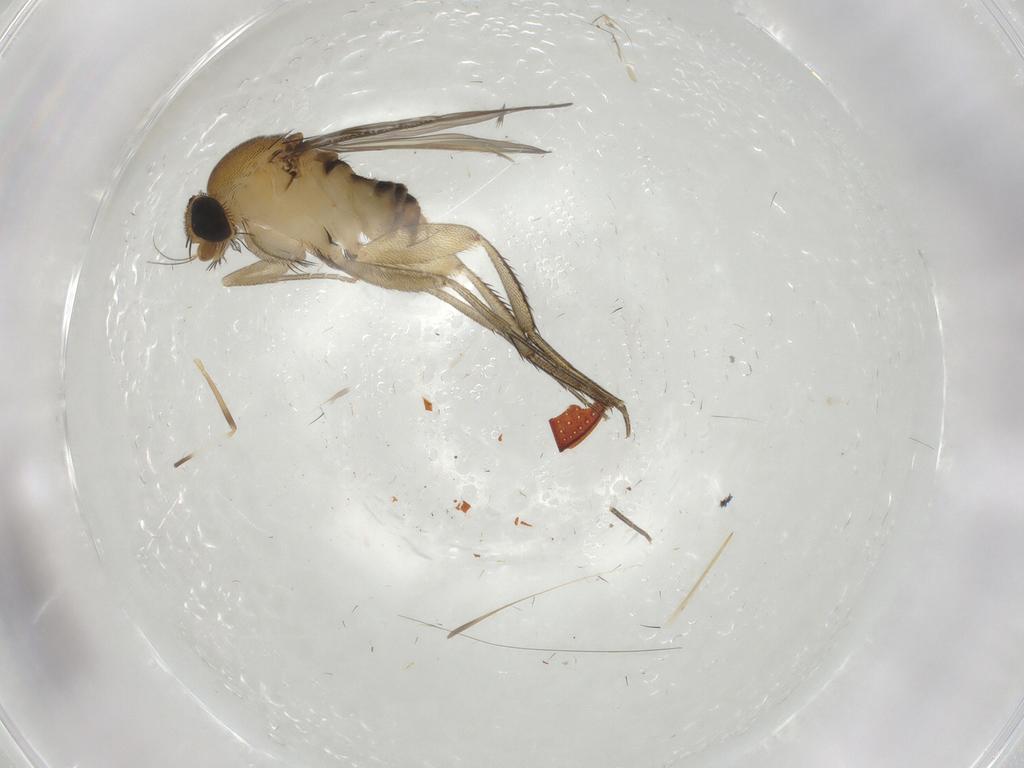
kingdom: Animalia
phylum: Arthropoda
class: Insecta
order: Diptera
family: Chironomidae
